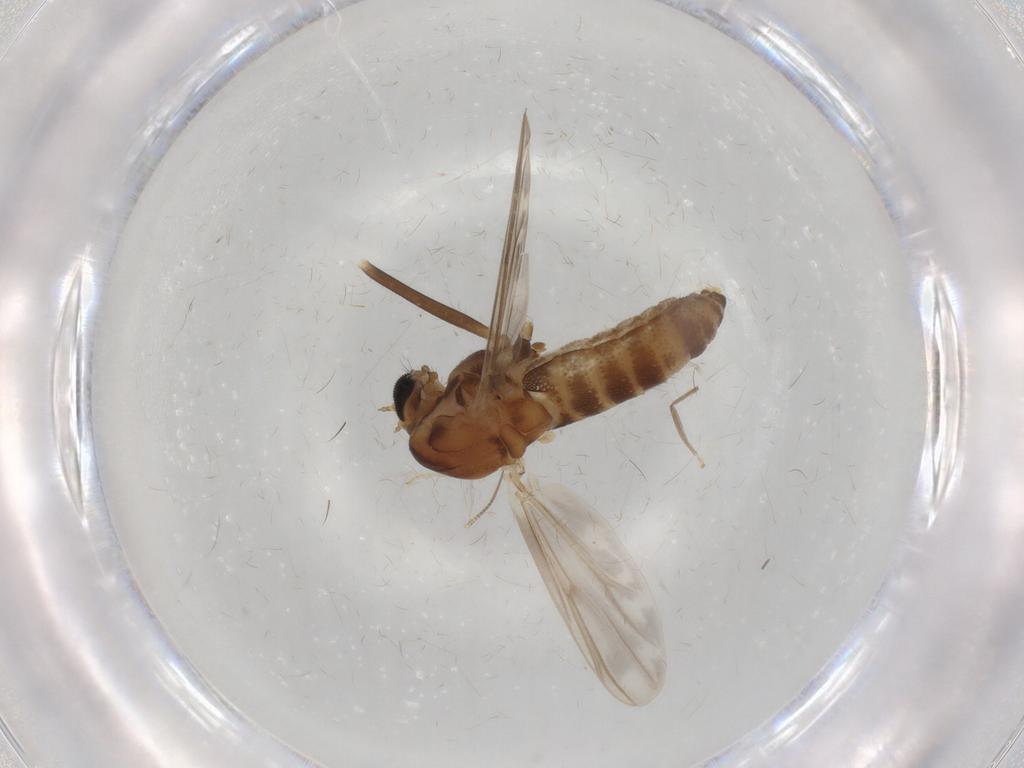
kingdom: Animalia
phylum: Arthropoda
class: Insecta
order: Diptera
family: Chironomidae
